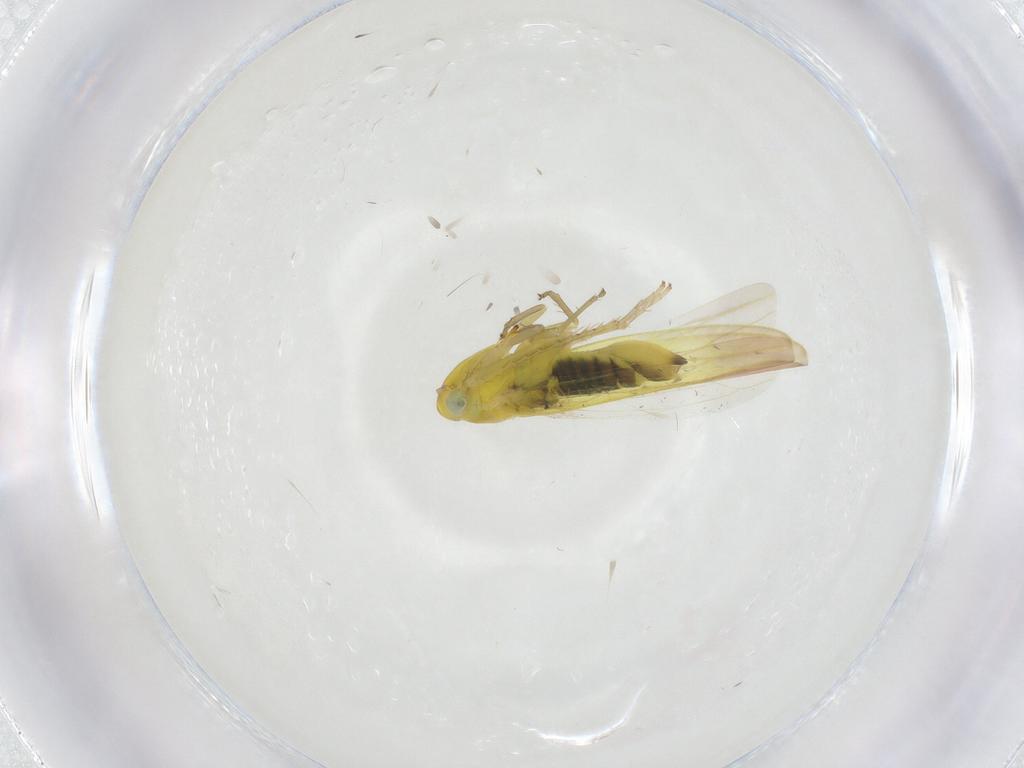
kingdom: Animalia
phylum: Arthropoda
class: Insecta
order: Hemiptera
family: Cicadellidae
